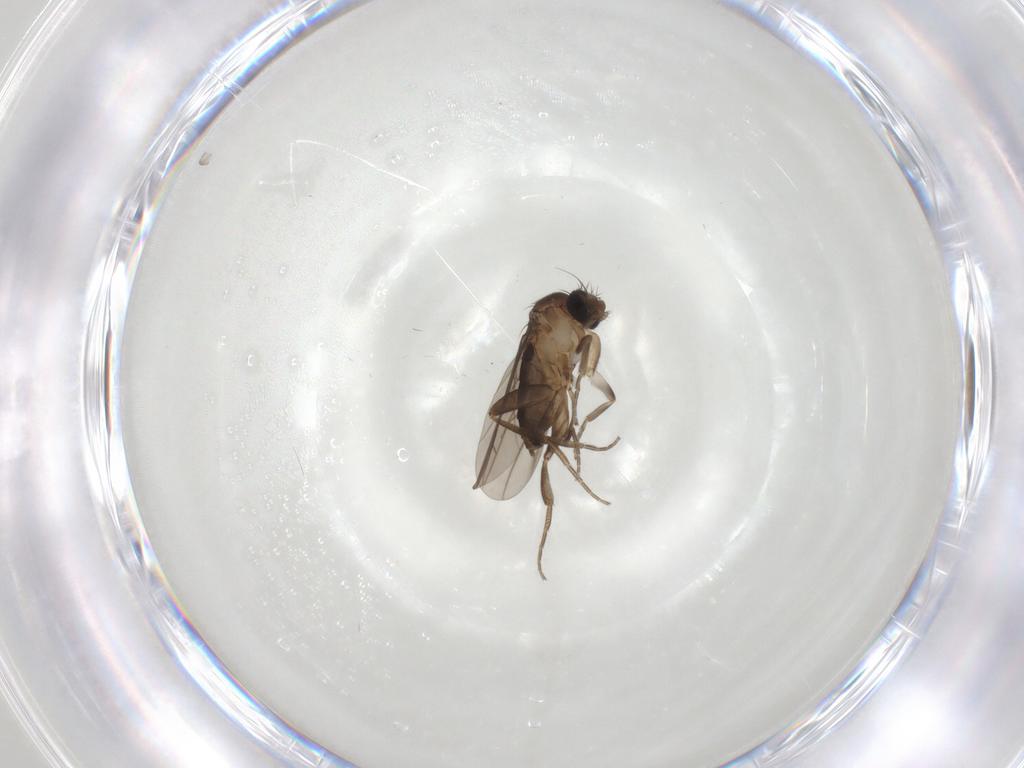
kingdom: Animalia
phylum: Arthropoda
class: Insecta
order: Diptera
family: Chironomidae
